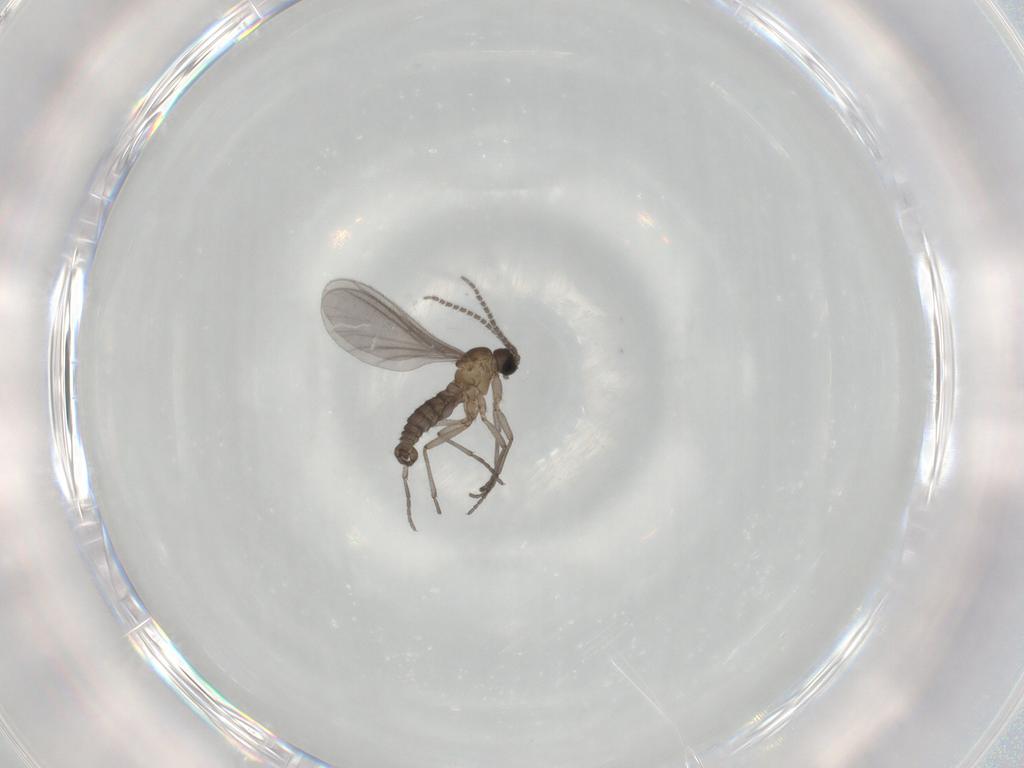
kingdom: Animalia
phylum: Arthropoda
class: Insecta
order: Diptera
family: Sciaridae
